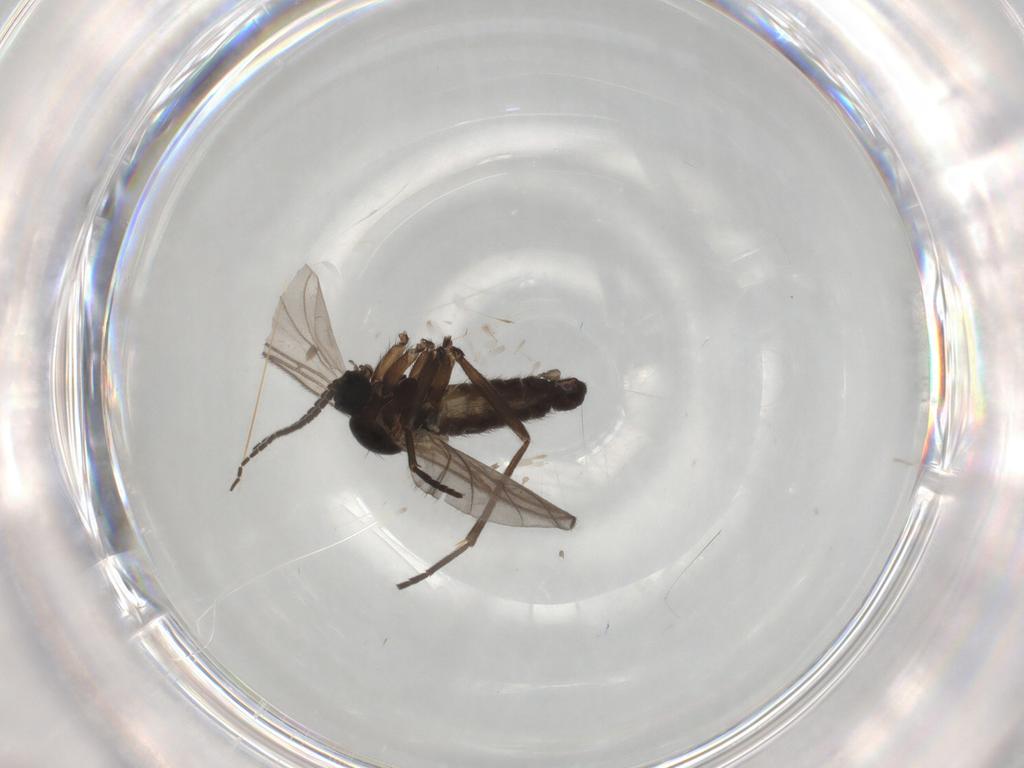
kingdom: Animalia
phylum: Arthropoda
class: Insecta
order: Diptera
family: Sciaridae
